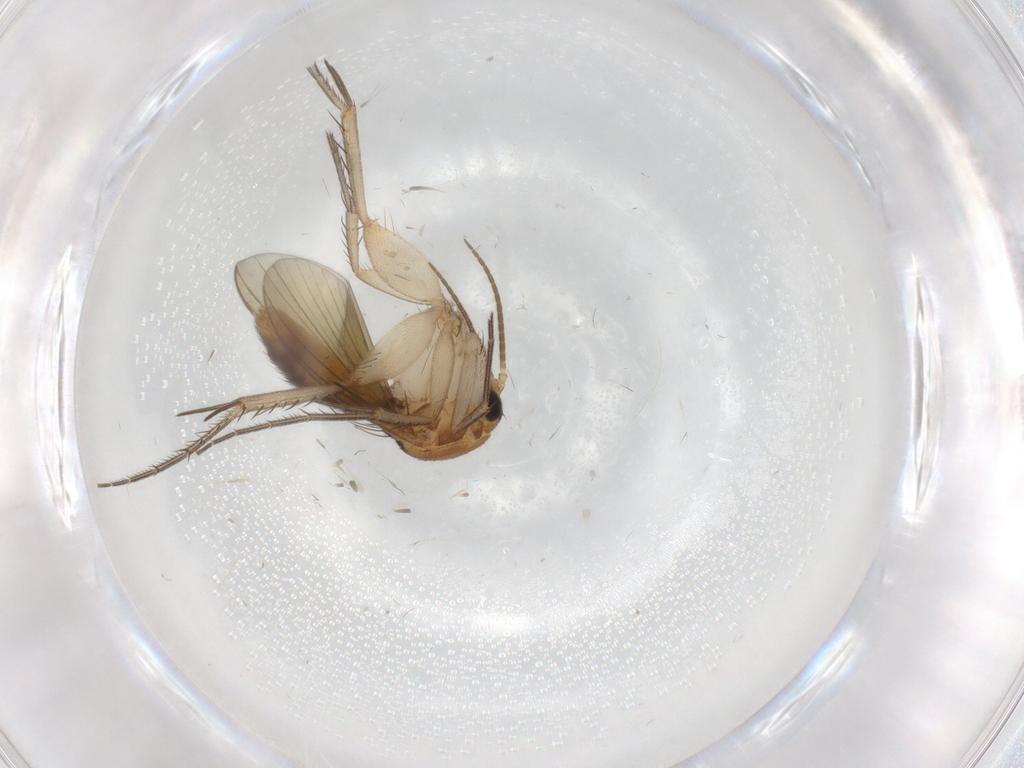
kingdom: Animalia
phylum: Arthropoda
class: Insecta
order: Diptera
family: Mycetophilidae
